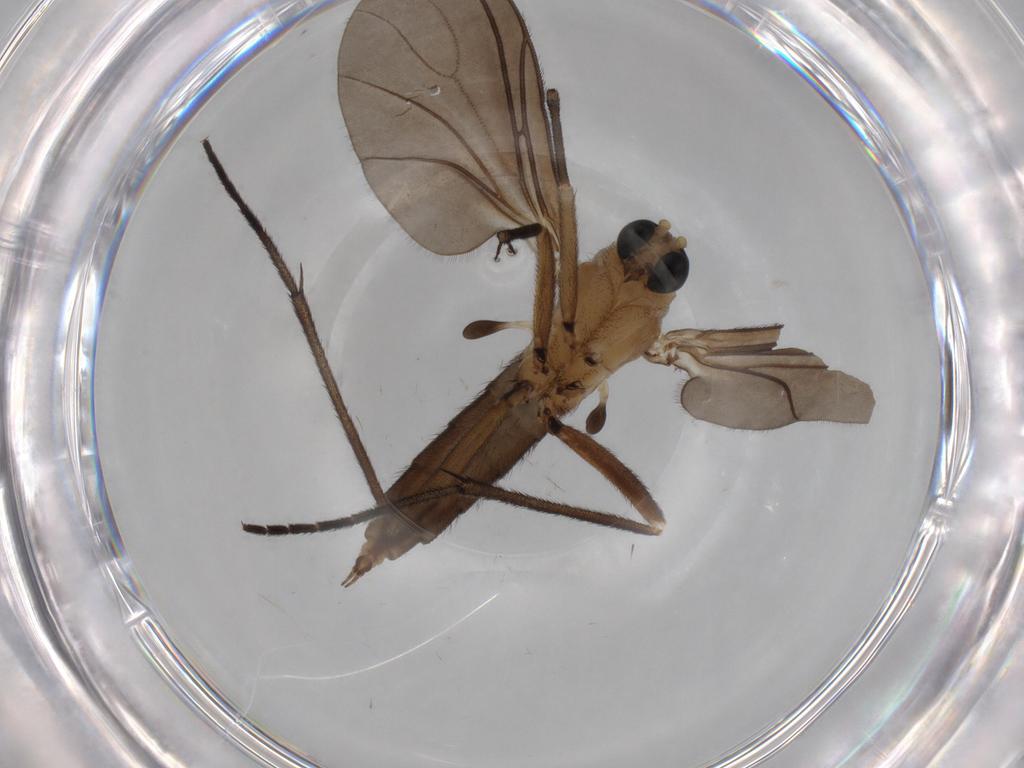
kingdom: Animalia
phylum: Arthropoda
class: Insecta
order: Diptera
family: Sciaridae
